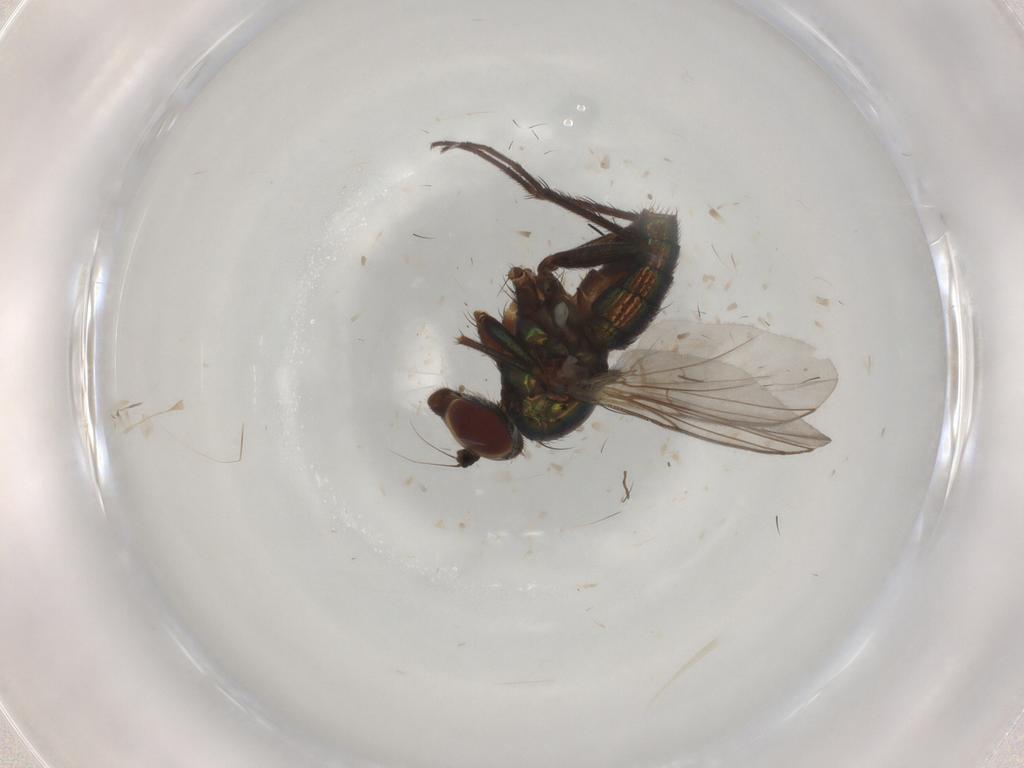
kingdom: Animalia
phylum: Arthropoda
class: Insecta
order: Diptera
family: Dolichopodidae
